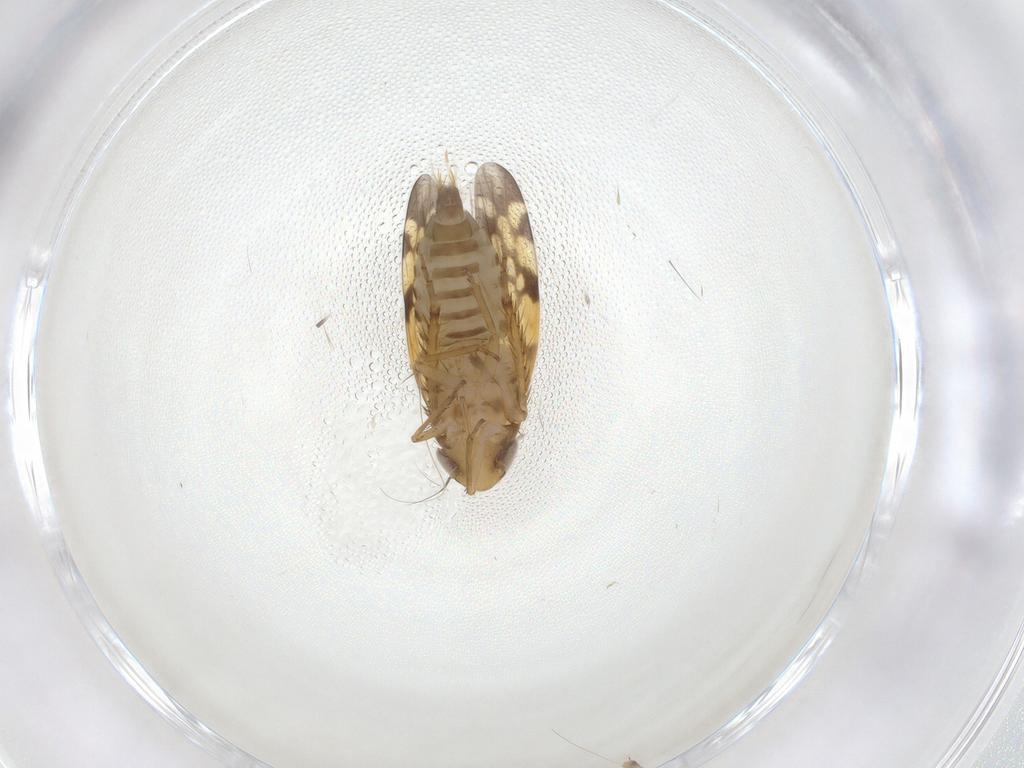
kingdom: Animalia
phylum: Arthropoda
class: Insecta
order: Hemiptera
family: Cicadellidae
